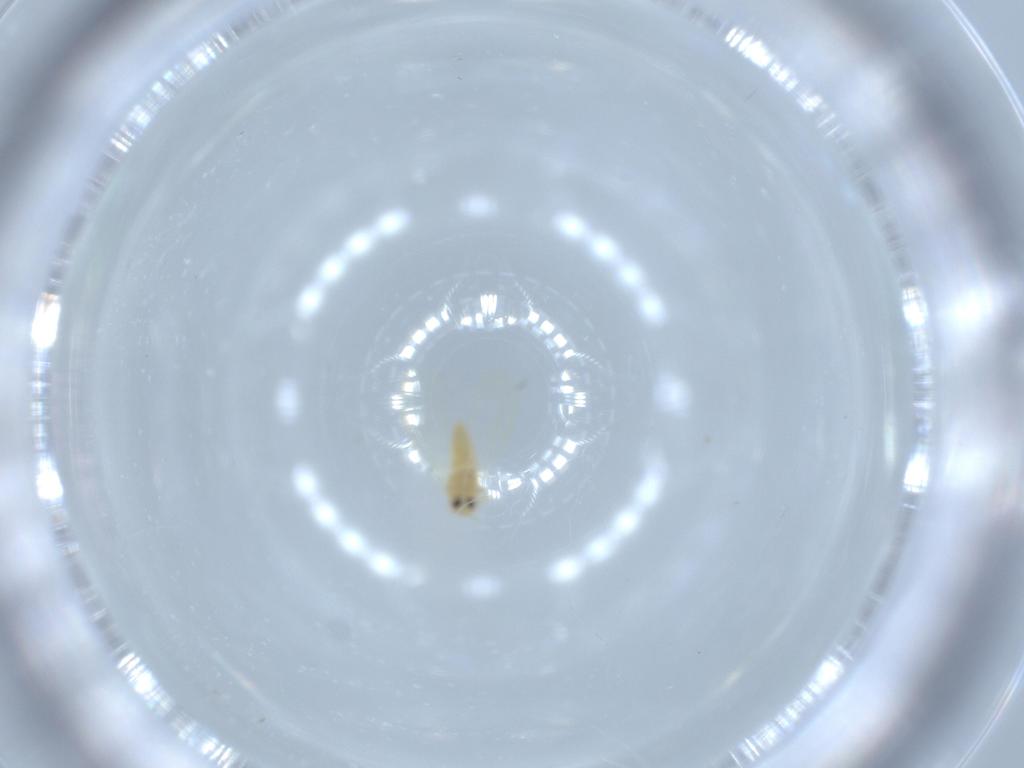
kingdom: Animalia
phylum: Arthropoda
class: Insecta
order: Hemiptera
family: Aleyrodidae
